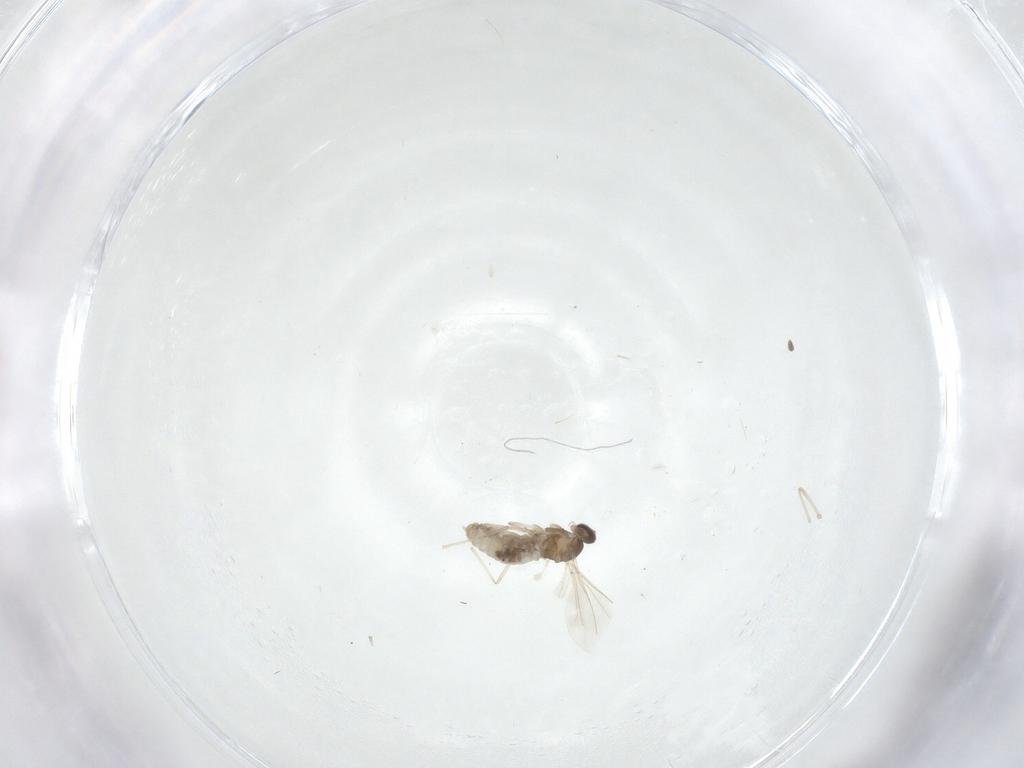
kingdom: Animalia
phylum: Arthropoda
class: Insecta
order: Diptera
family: Cecidomyiidae
